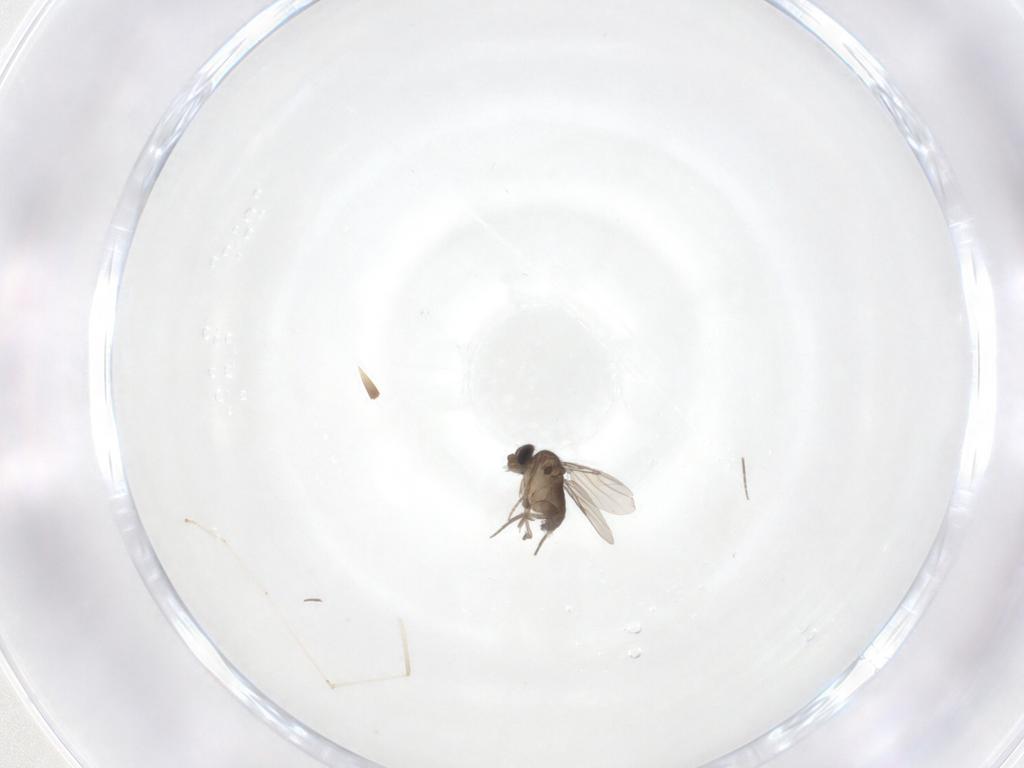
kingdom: Animalia
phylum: Arthropoda
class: Insecta
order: Diptera
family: Phoridae
